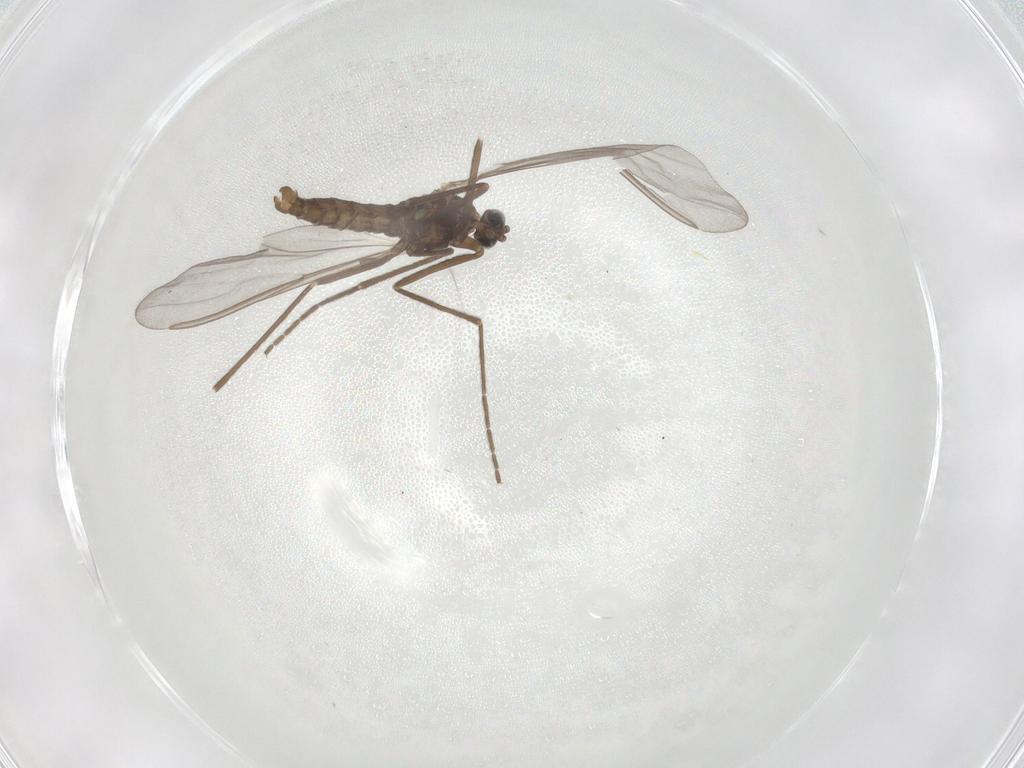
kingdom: Animalia
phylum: Arthropoda
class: Insecta
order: Diptera
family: Cecidomyiidae
